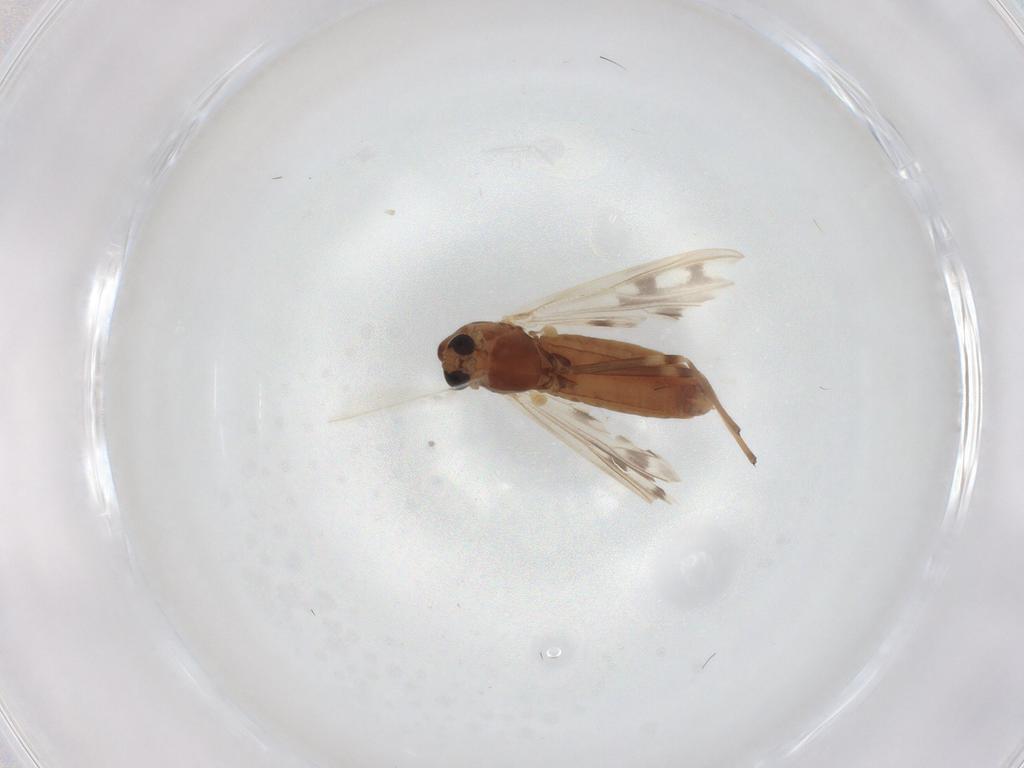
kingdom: Animalia
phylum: Arthropoda
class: Insecta
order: Diptera
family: Chironomidae
